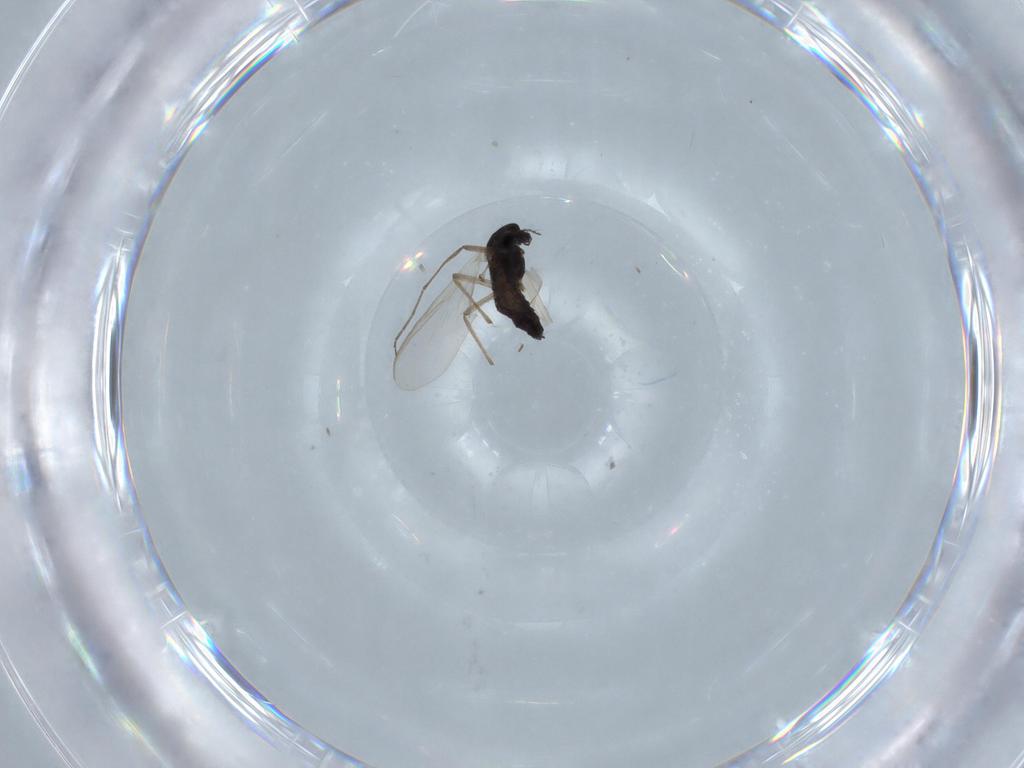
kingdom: Animalia
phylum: Arthropoda
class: Insecta
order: Diptera
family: Chironomidae
